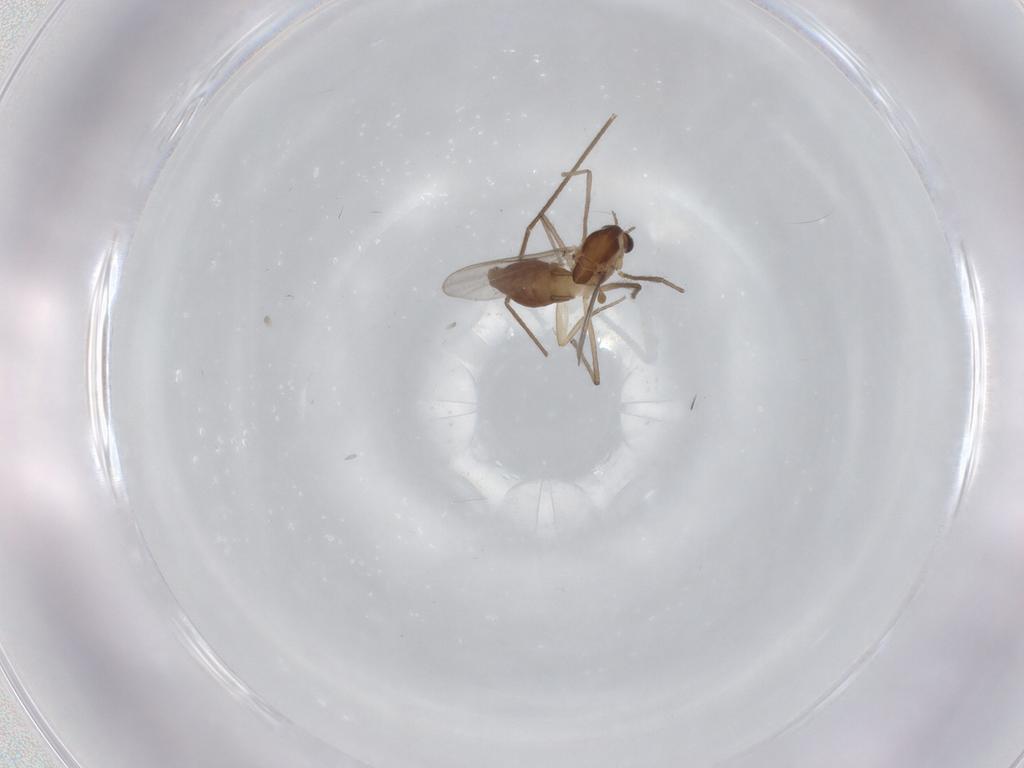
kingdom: Animalia
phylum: Arthropoda
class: Insecta
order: Diptera
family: Chironomidae
